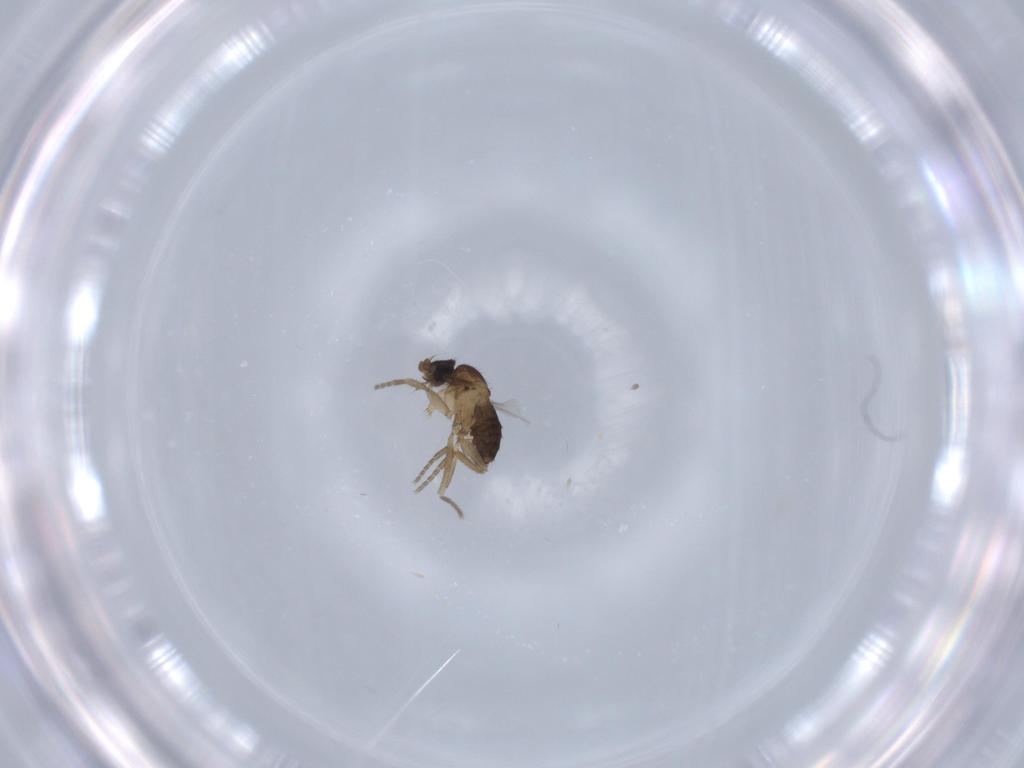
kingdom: Animalia
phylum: Arthropoda
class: Insecta
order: Diptera
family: Phoridae
